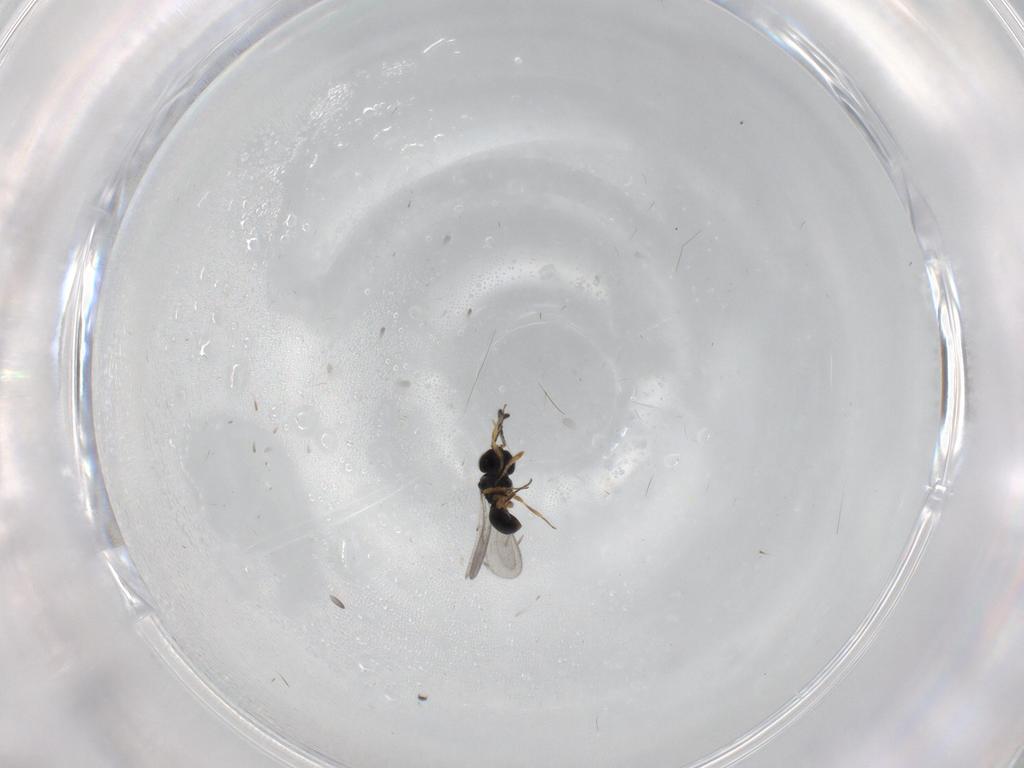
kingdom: Animalia
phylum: Arthropoda
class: Insecta
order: Hymenoptera
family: Scelionidae
